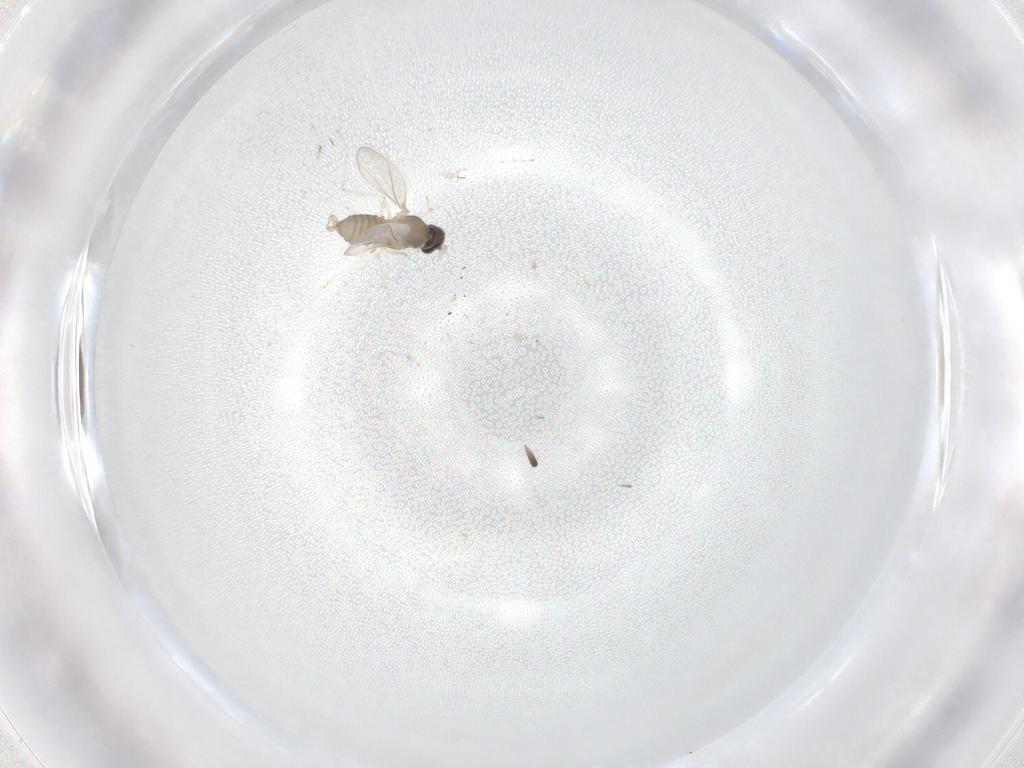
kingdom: Animalia
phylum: Arthropoda
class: Insecta
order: Diptera
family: Cecidomyiidae
